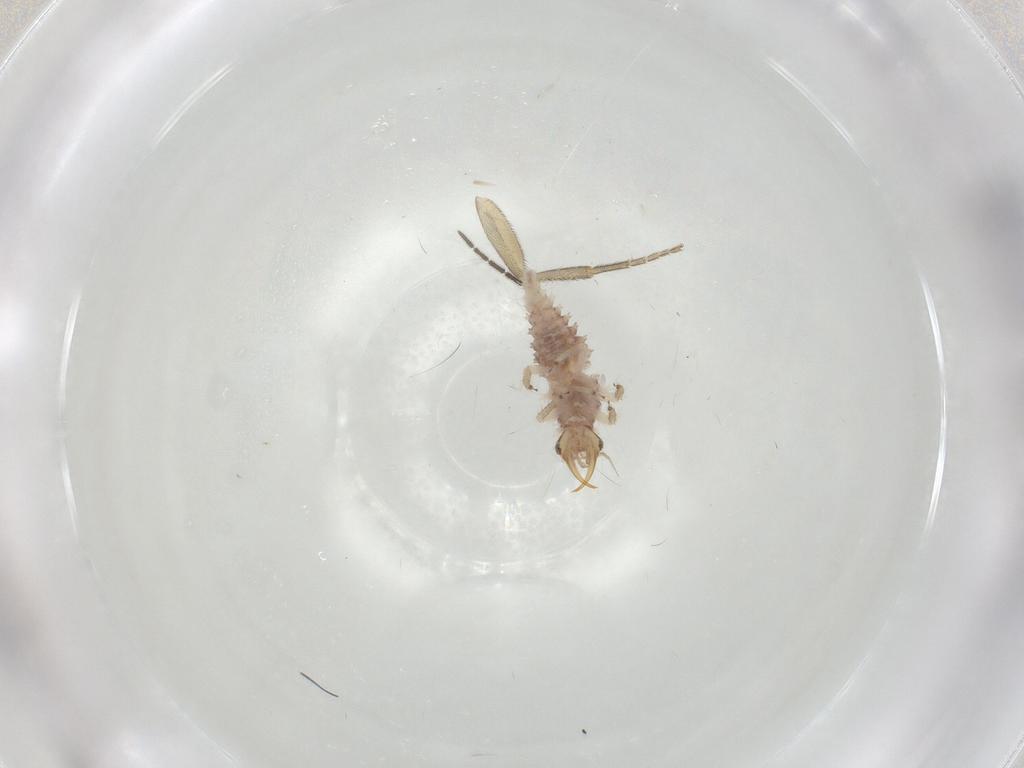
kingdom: Animalia
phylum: Arthropoda
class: Insecta
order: Neuroptera
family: Chrysopidae
